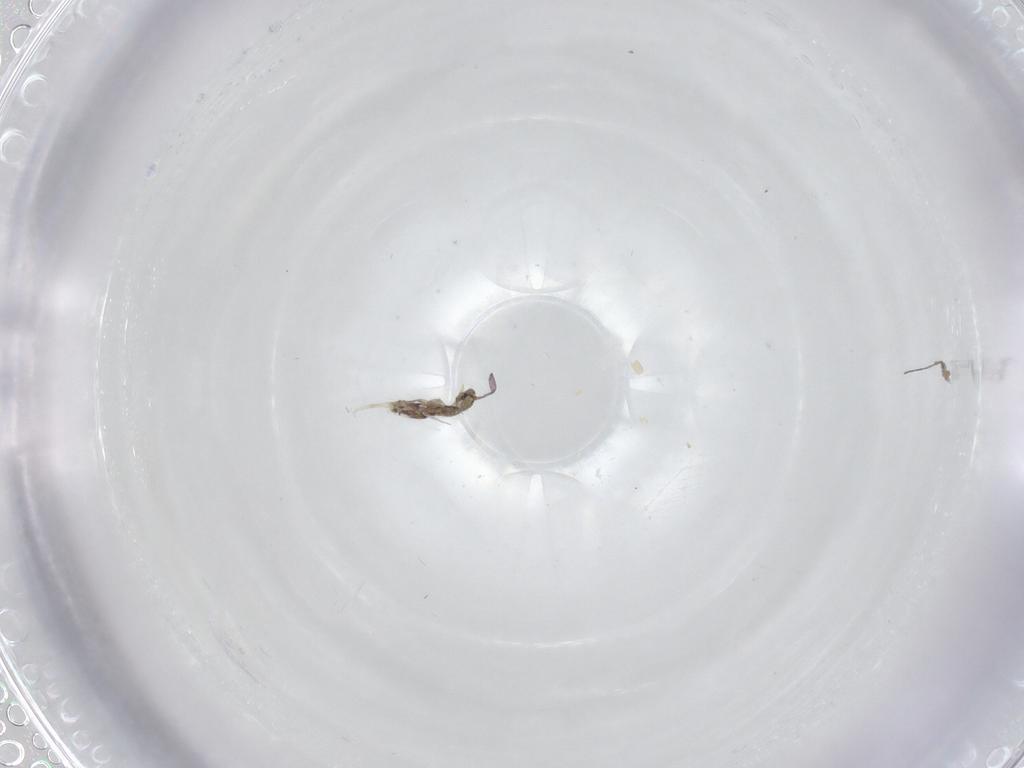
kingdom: Animalia
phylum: Arthropoda
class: Collembola
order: Entomobryomorpha
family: Entomobryidae
